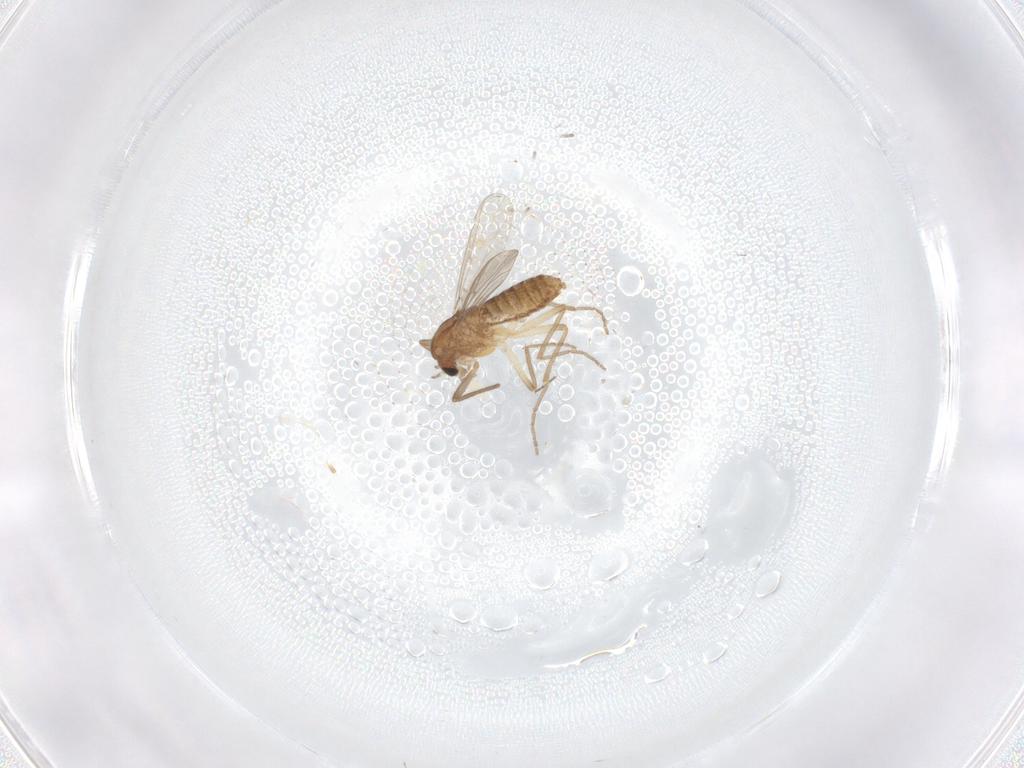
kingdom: Animalia
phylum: Arthropoda
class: Insecta
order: Diptera
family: Ceratopogonidae
